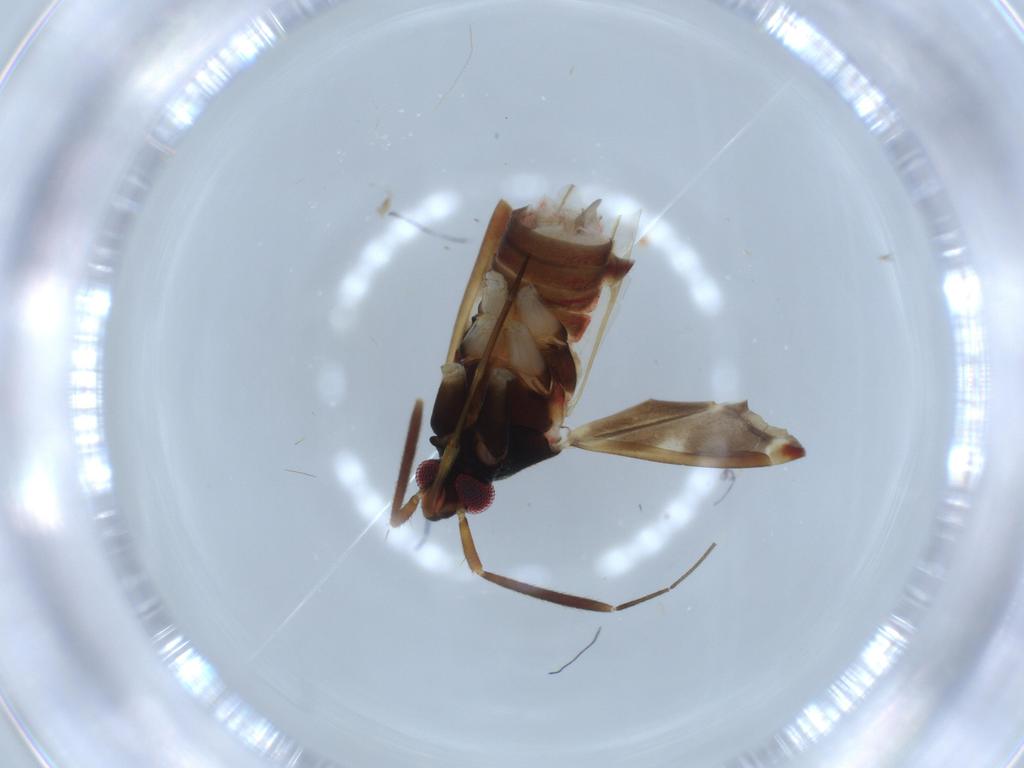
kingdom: Animalia
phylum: Arthropoda
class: Insecta
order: Hemiptera
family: Miridae
